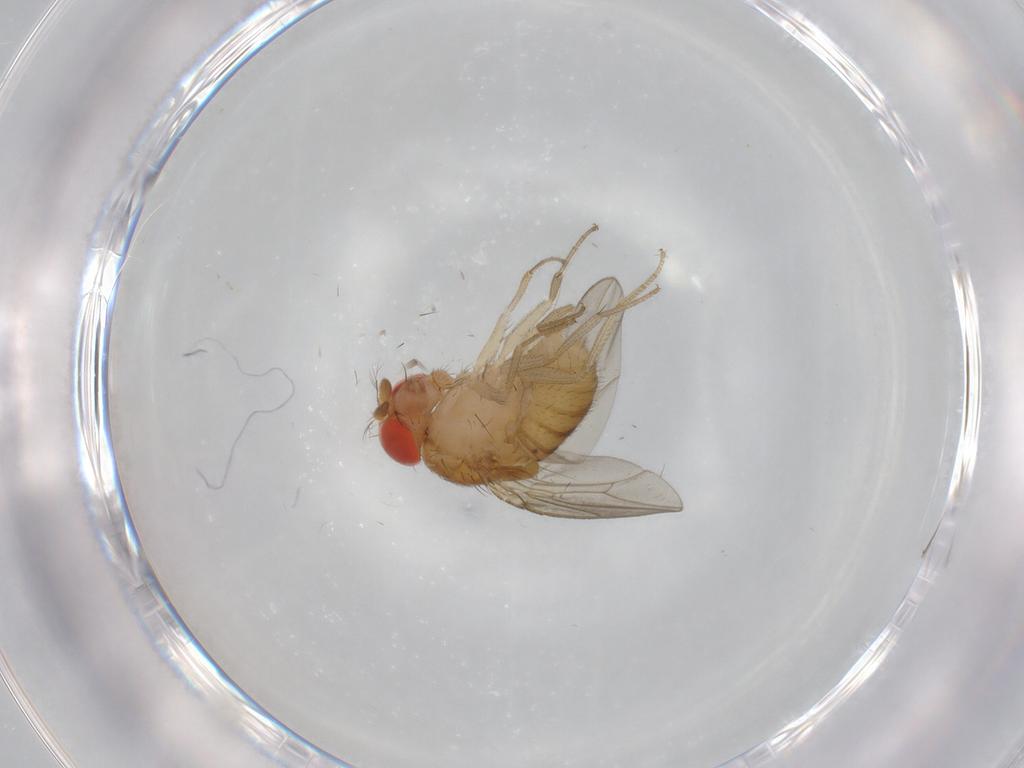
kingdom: Animalia
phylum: Arthropoda
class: Insecta
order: Diptera
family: Drosophilidae
